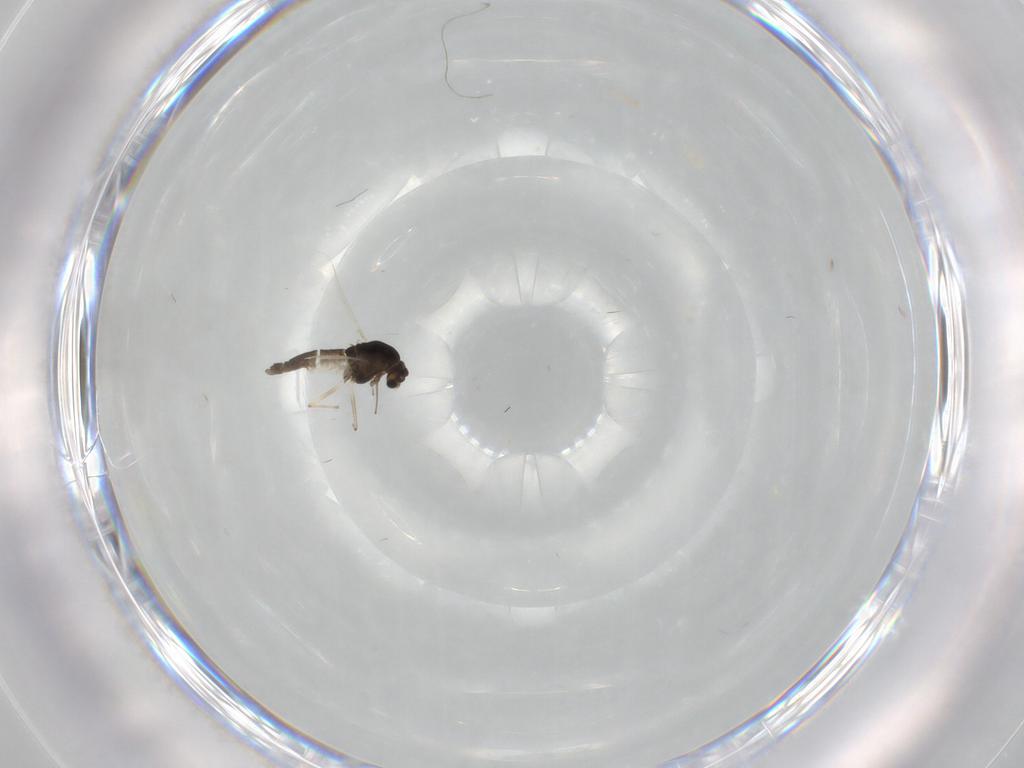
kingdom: Animalia
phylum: Arthropoda
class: Insecta
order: Diptera
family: Chironomidae
